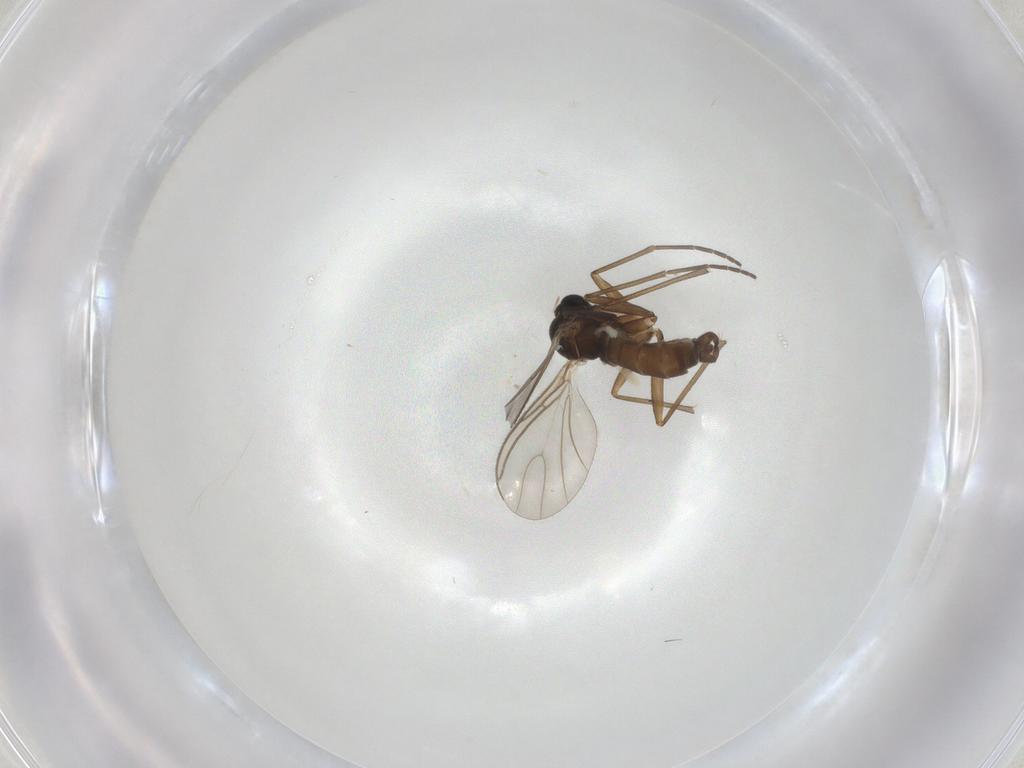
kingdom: Animalia
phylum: Arthropoda
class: Insecta
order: Diptera
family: Sciaridae
